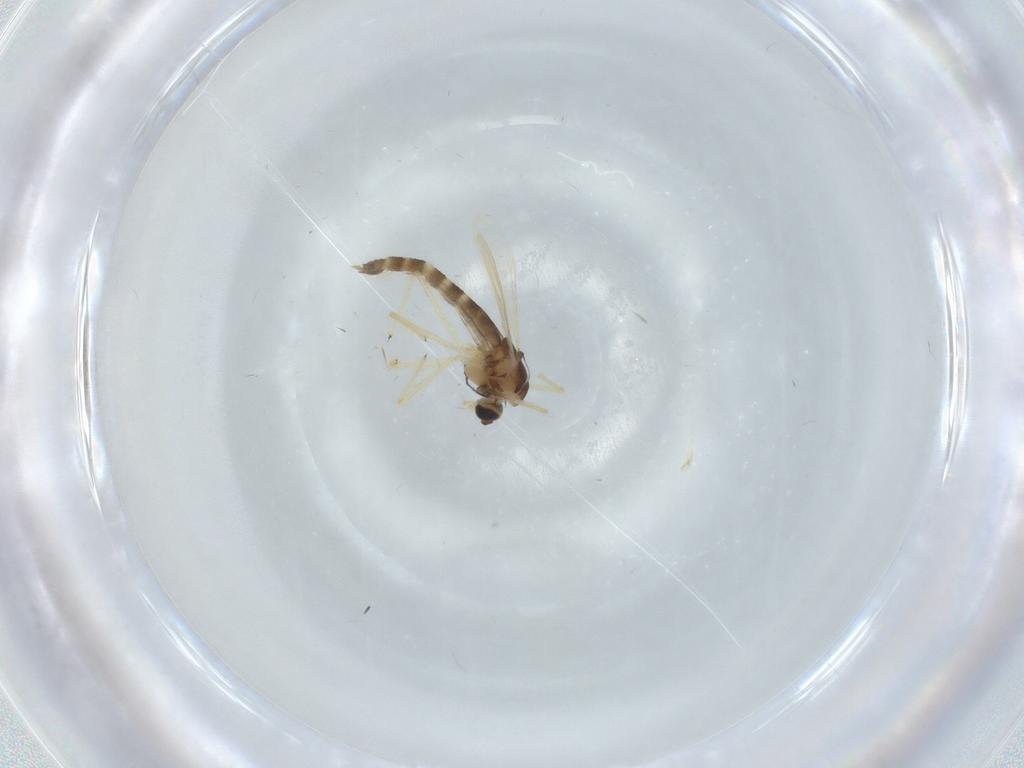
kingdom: Animalia
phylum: Arthropoda
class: Insecta
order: Diptera
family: Chironomidae
